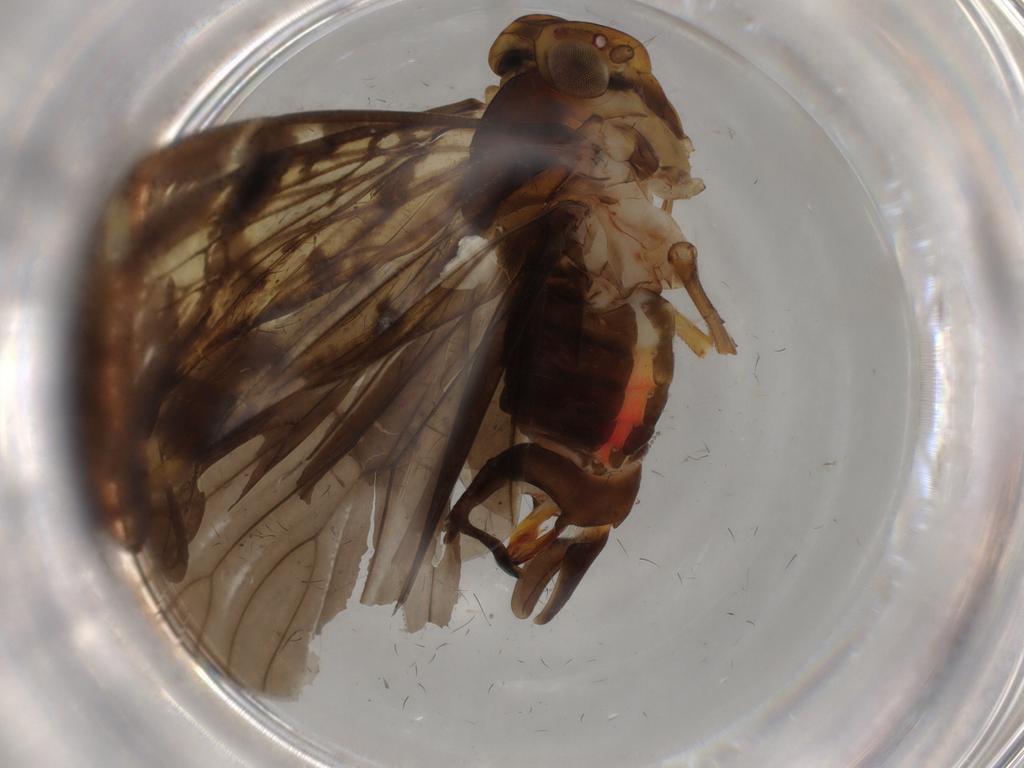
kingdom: Animalia
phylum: Arthropoda
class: Insecta
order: Hemiptera
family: Cixiidae
